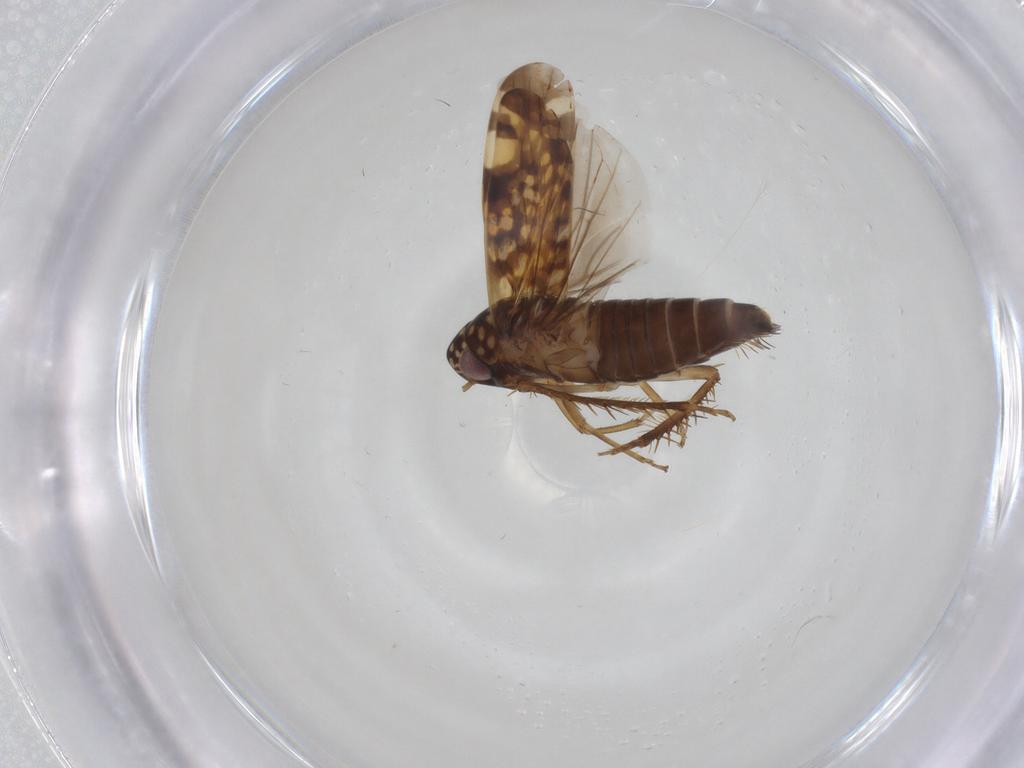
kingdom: Animalia
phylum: Arthropoda
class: Insecta
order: Hemiptera
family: Cicadellidae
